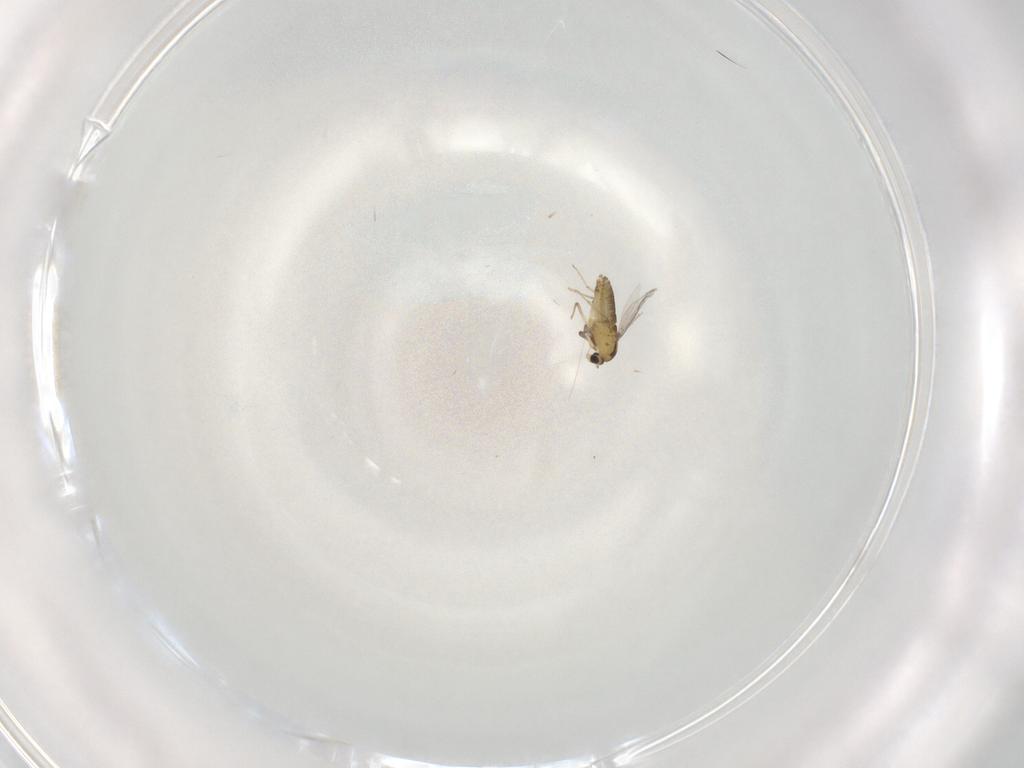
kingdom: Animalia
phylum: Arthropoda
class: Insecta
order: Diptera
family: Chironomidae
